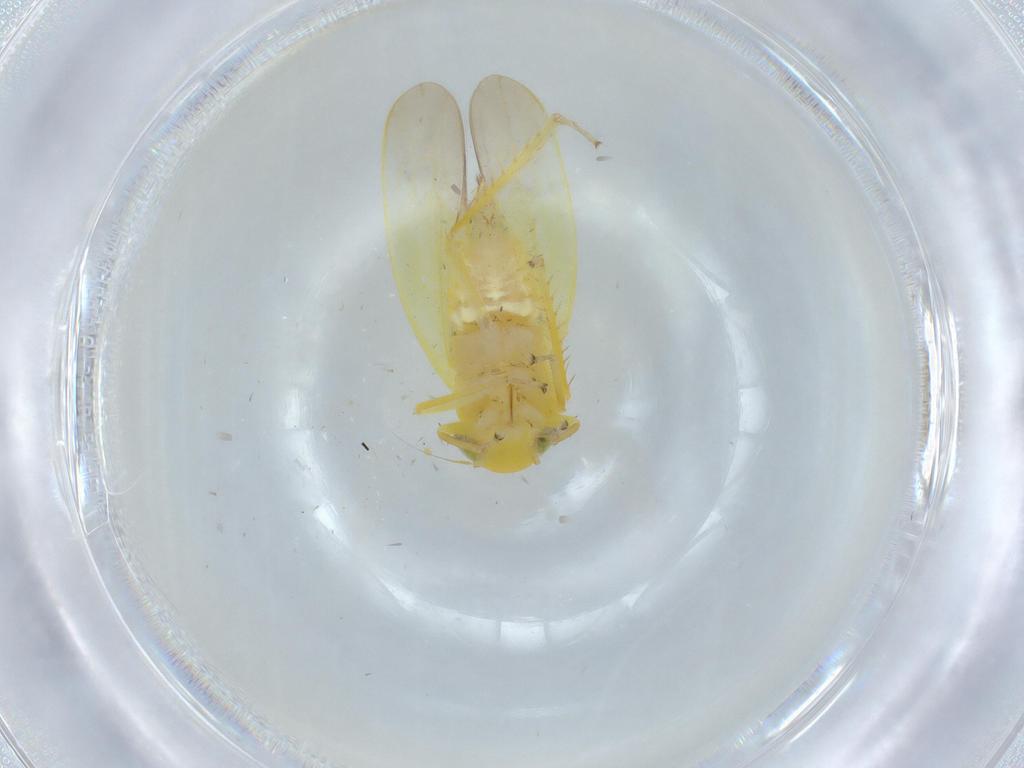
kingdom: Animalia
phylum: Arthropoda
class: Insecta
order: Hemiptera
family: Cicadellidae
